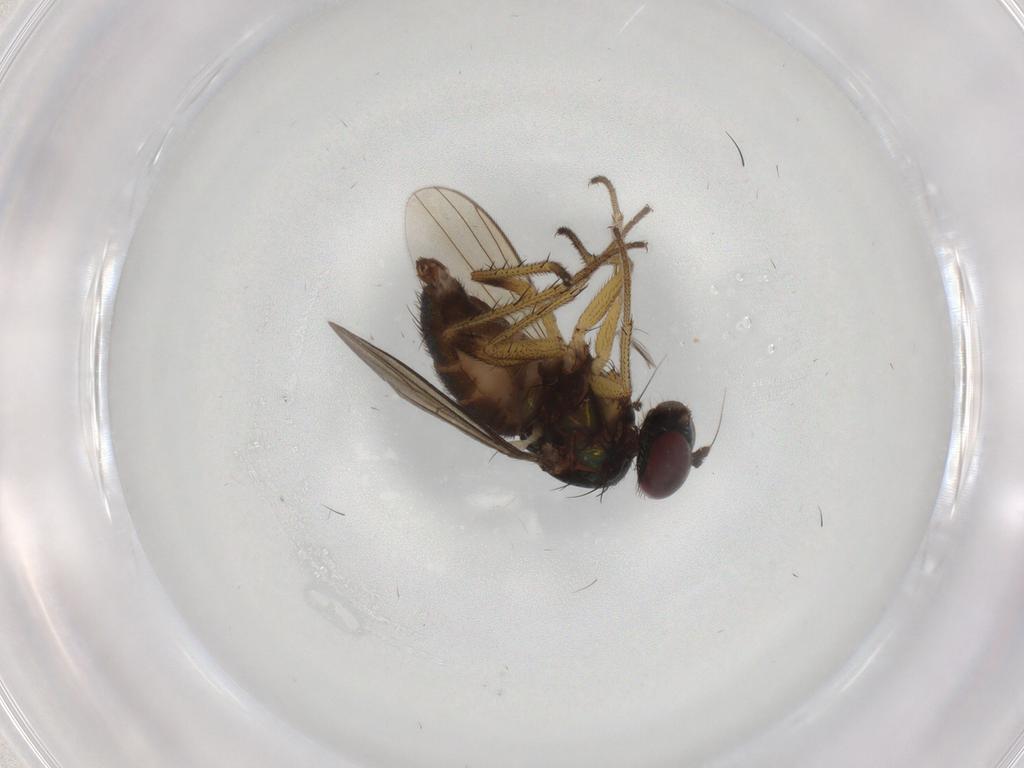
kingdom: Animalia
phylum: Arthropoda
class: Insecta
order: Diptera
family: Dolichopodidae
